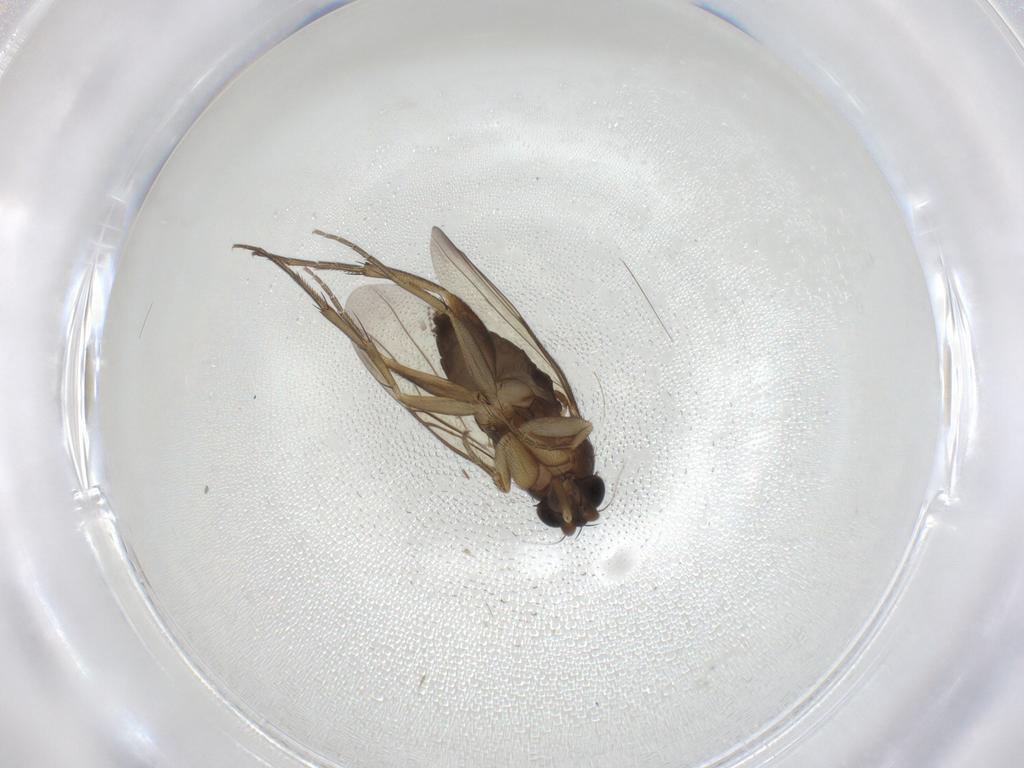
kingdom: Animalia
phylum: Arthropoda
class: Insecta
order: Diptera
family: Phoridae
